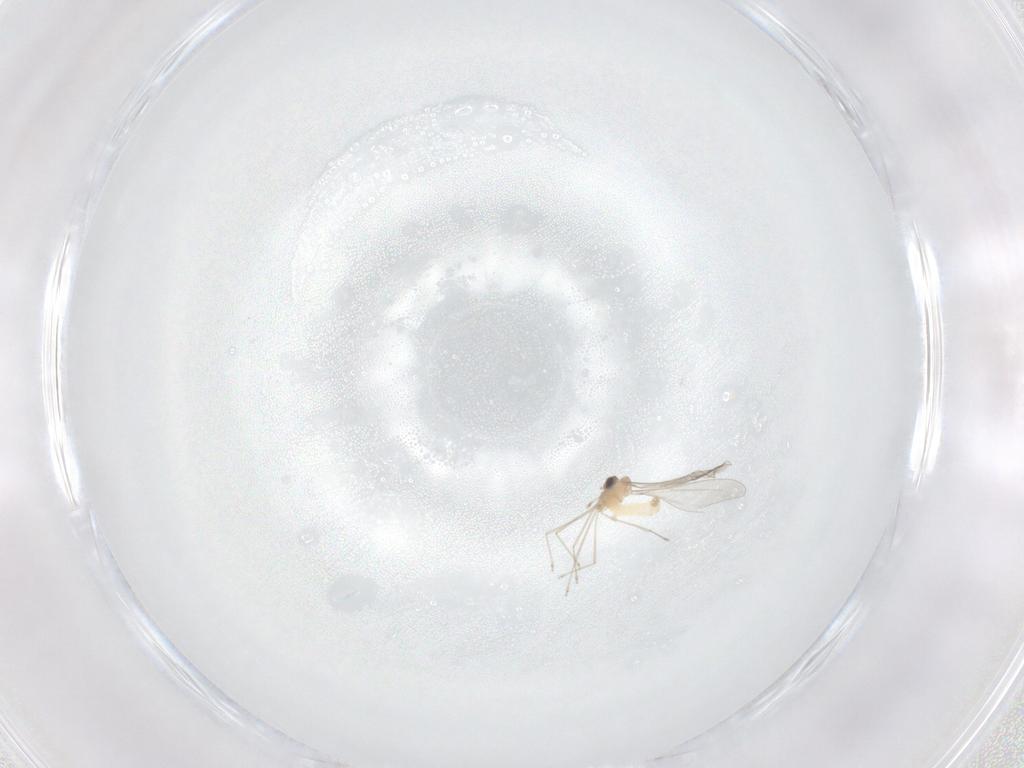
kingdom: Animalia
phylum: Arthropoda
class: Insecta
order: Diptera
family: Cecidomyiidae
